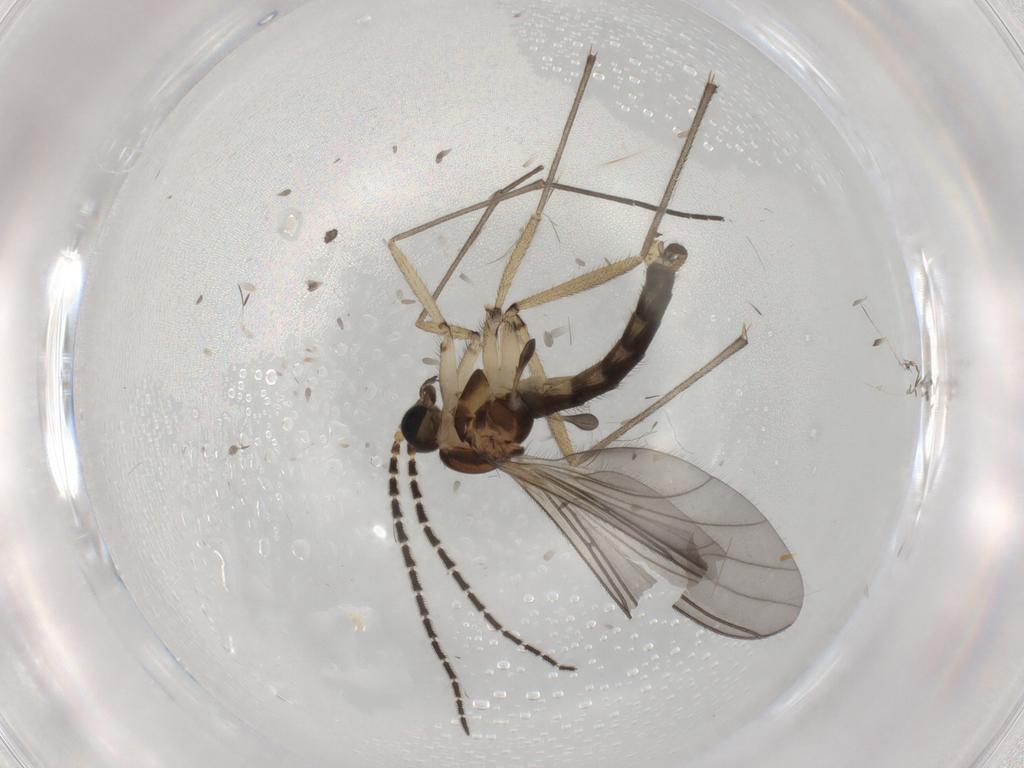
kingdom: Animalia
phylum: Arthropoda
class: Insecta
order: Diptera
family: Sciaridae
